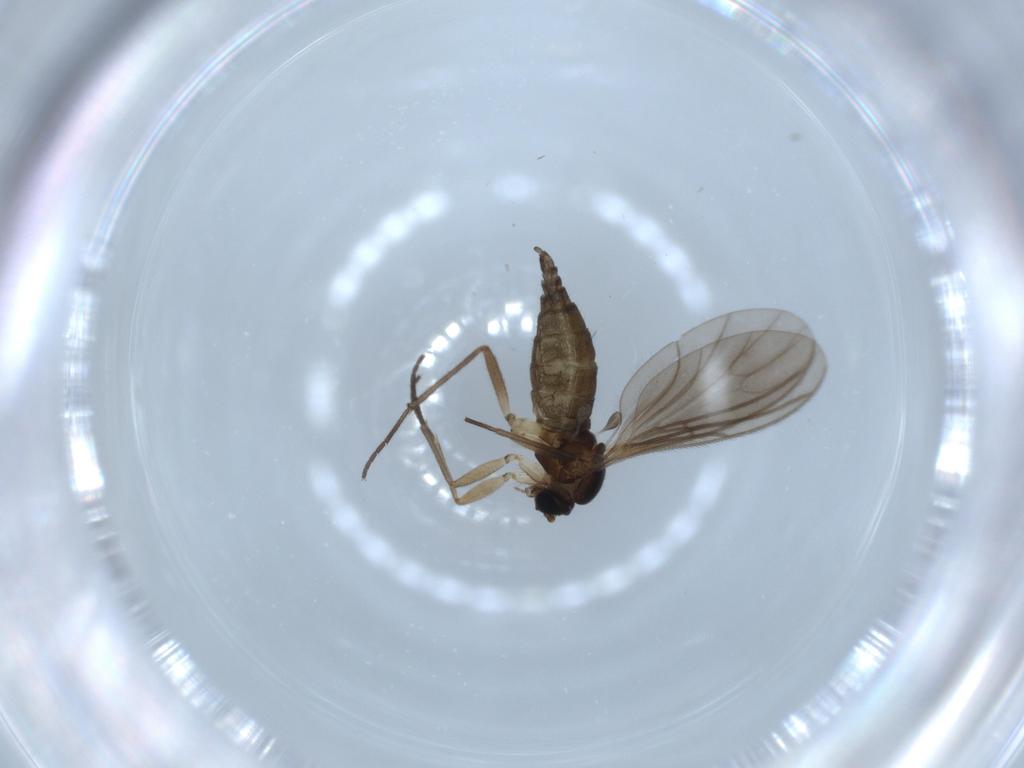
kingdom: Animalia
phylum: Arthropoda
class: Insecta
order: Diptera
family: Sciaridae
